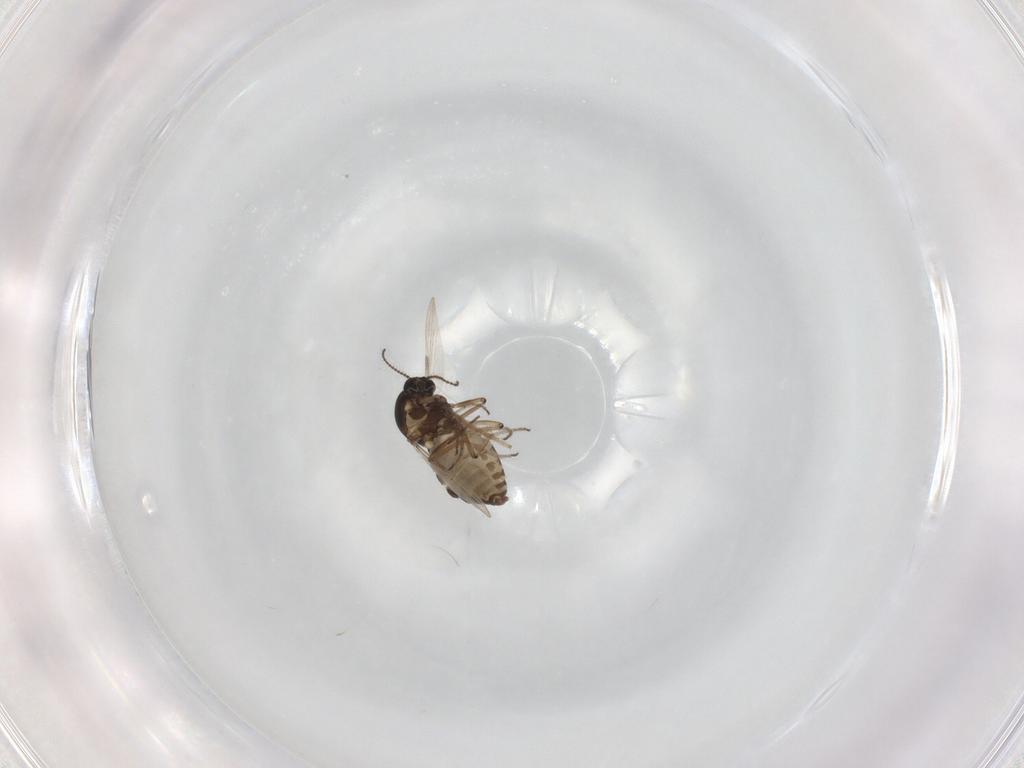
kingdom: Animalia
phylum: Arthropoda
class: Insecta
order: Diptera
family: Ceratopogonidae
